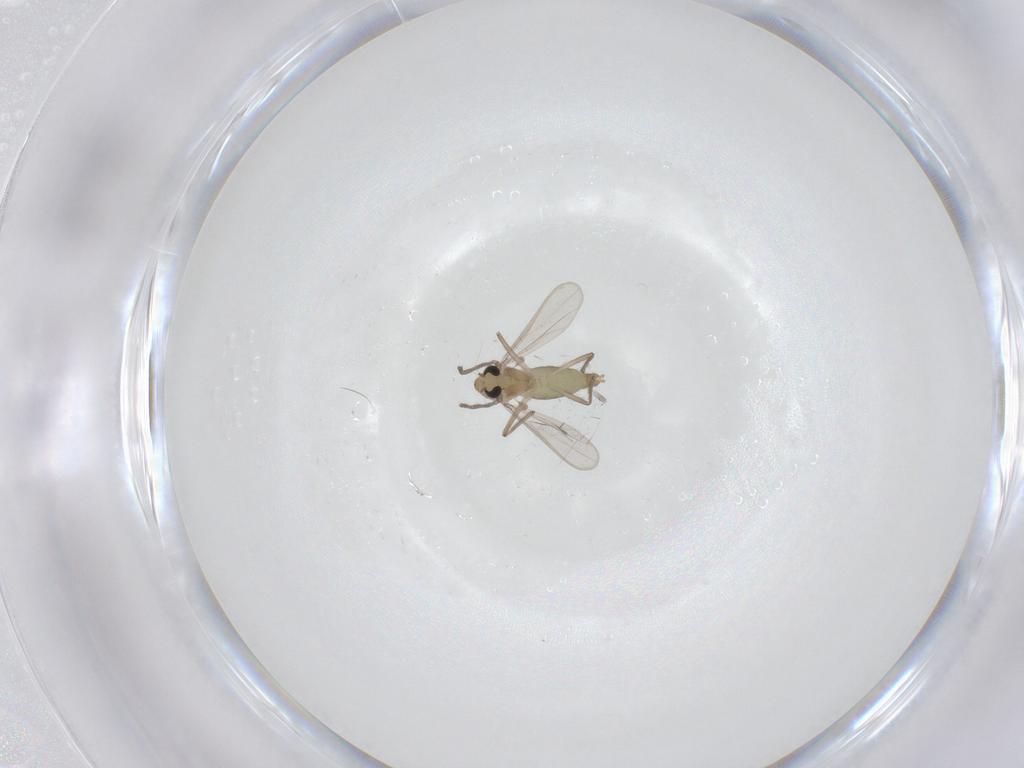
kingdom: Animalia
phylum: Arthropoda
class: Insecta
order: Diptera
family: Chironomidae
